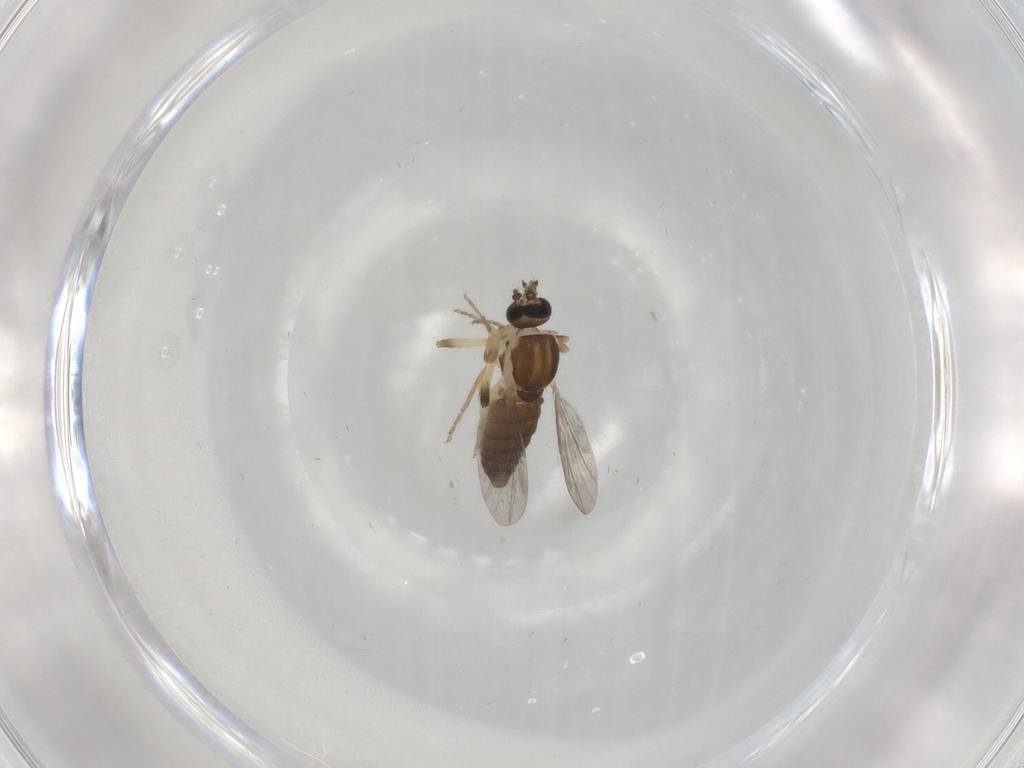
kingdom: Animalia
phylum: Arthropoda
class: Insecta
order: Diptera
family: Ceratopogonidae
